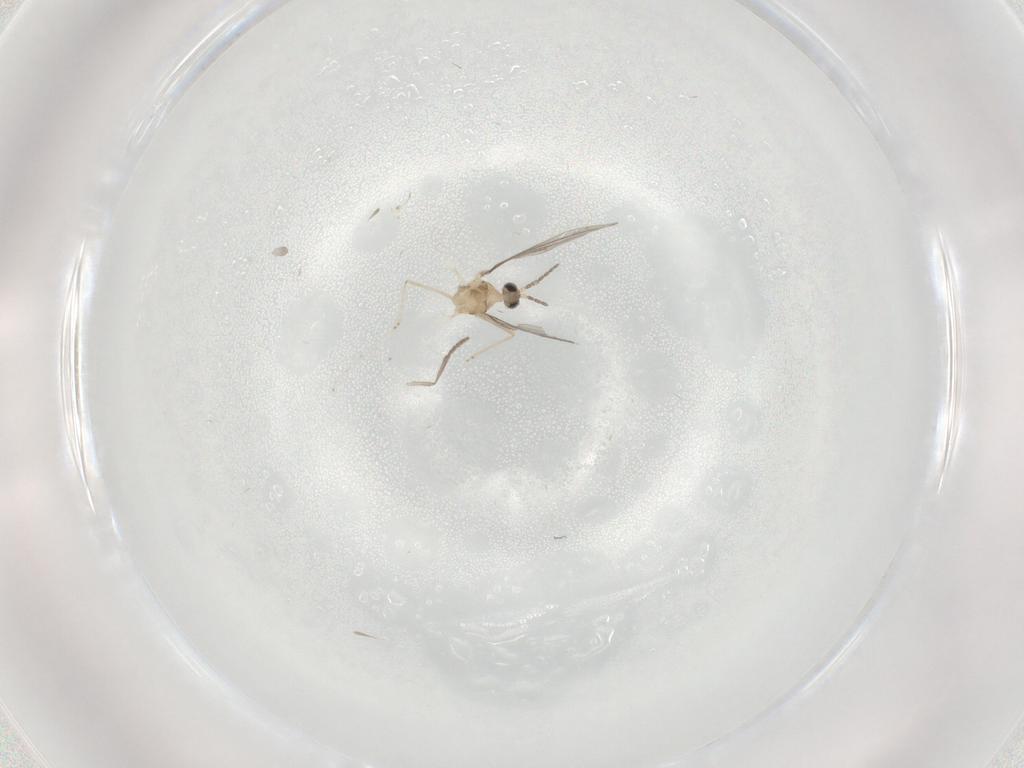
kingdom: Animalia
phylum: Arthropoda
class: Insecta
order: Diptera
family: Cecidomyiidae
